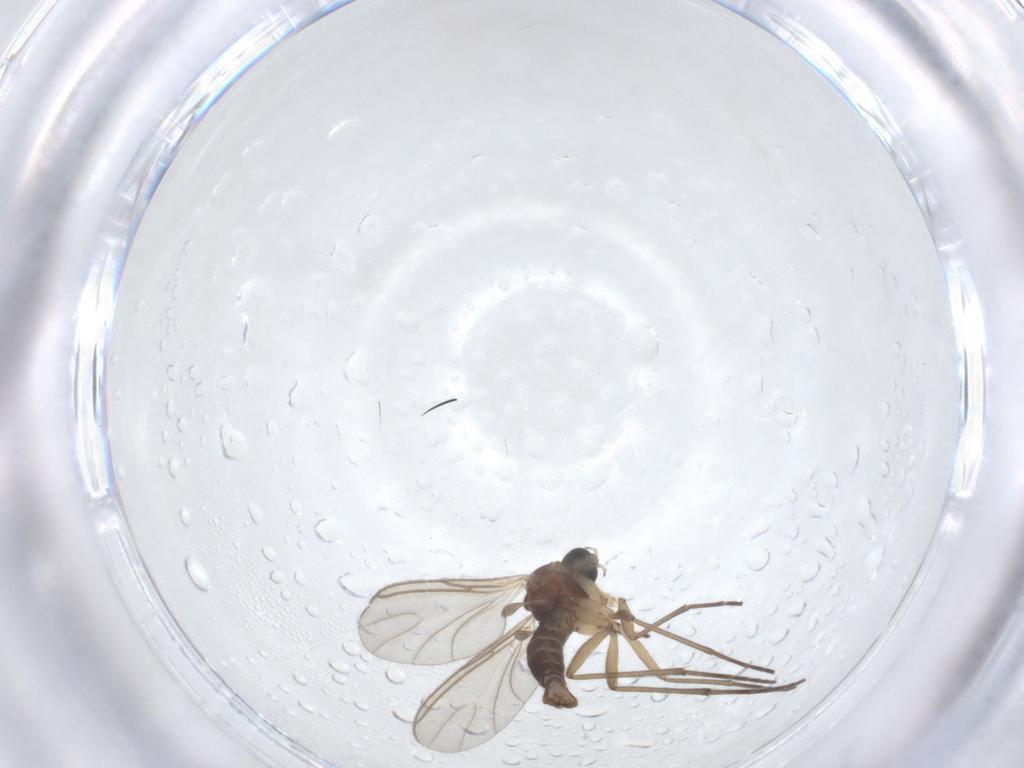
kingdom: Animalia
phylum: Arthropoda
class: Insecta
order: Diptera
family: Sciaridae
